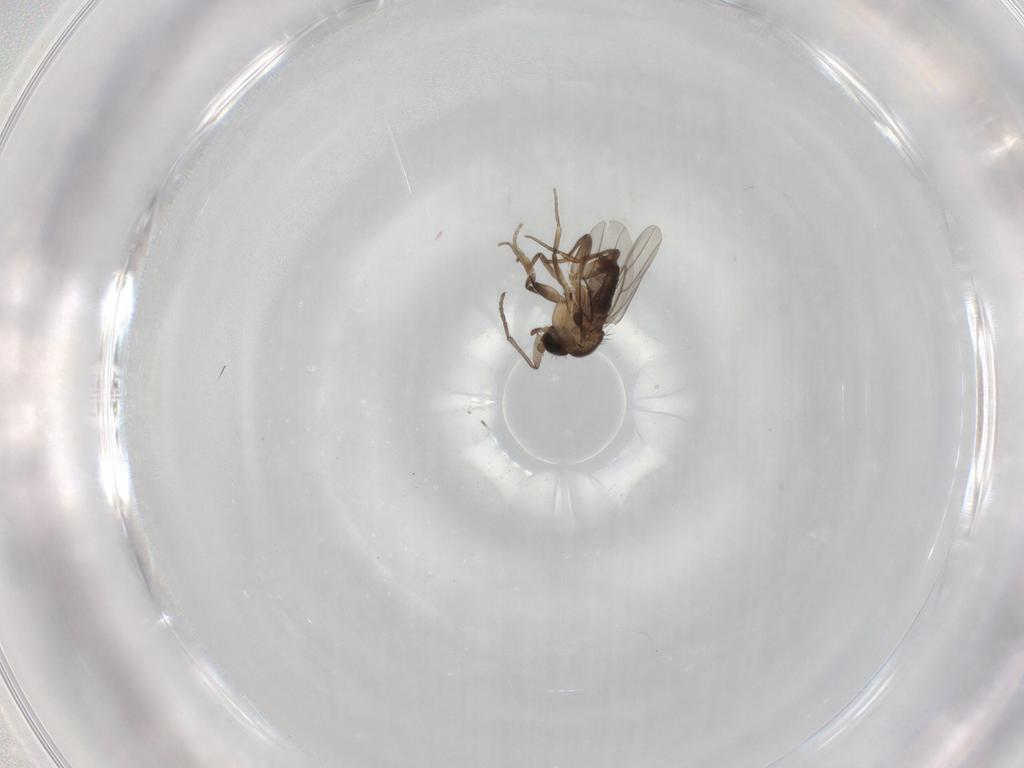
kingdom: Animalia
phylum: Arthropoda
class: Insecta
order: Diptera
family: Sciaridae
